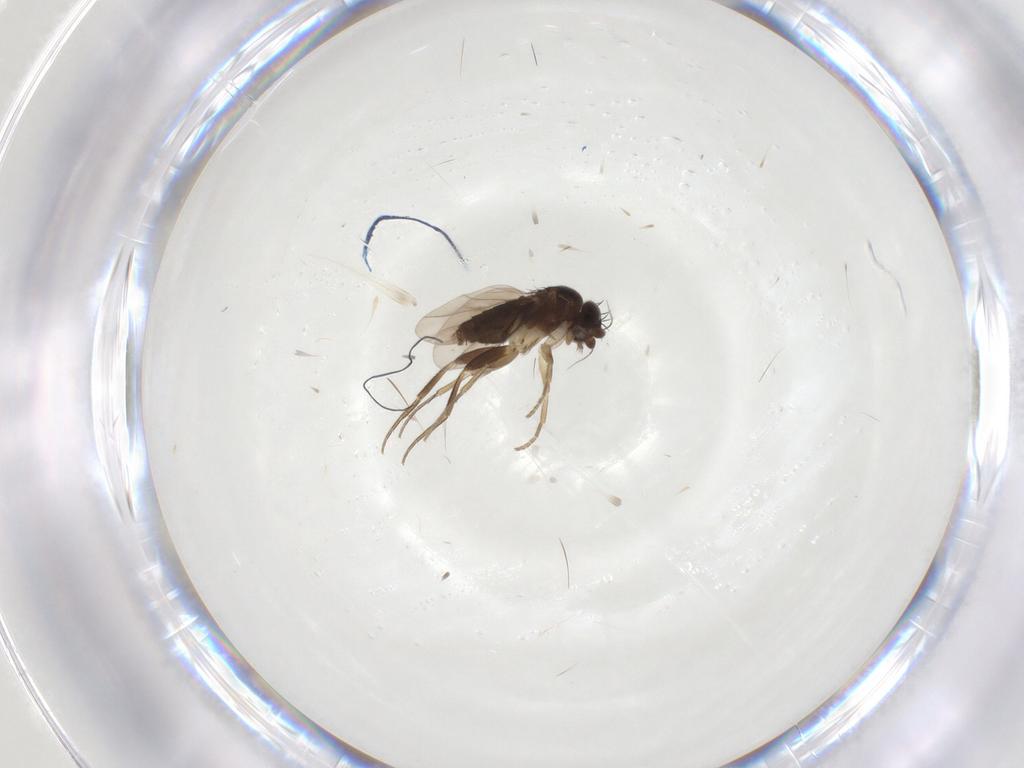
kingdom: Animalia
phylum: Arthropoda
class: Insecta
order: Diptera
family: Phoridae
